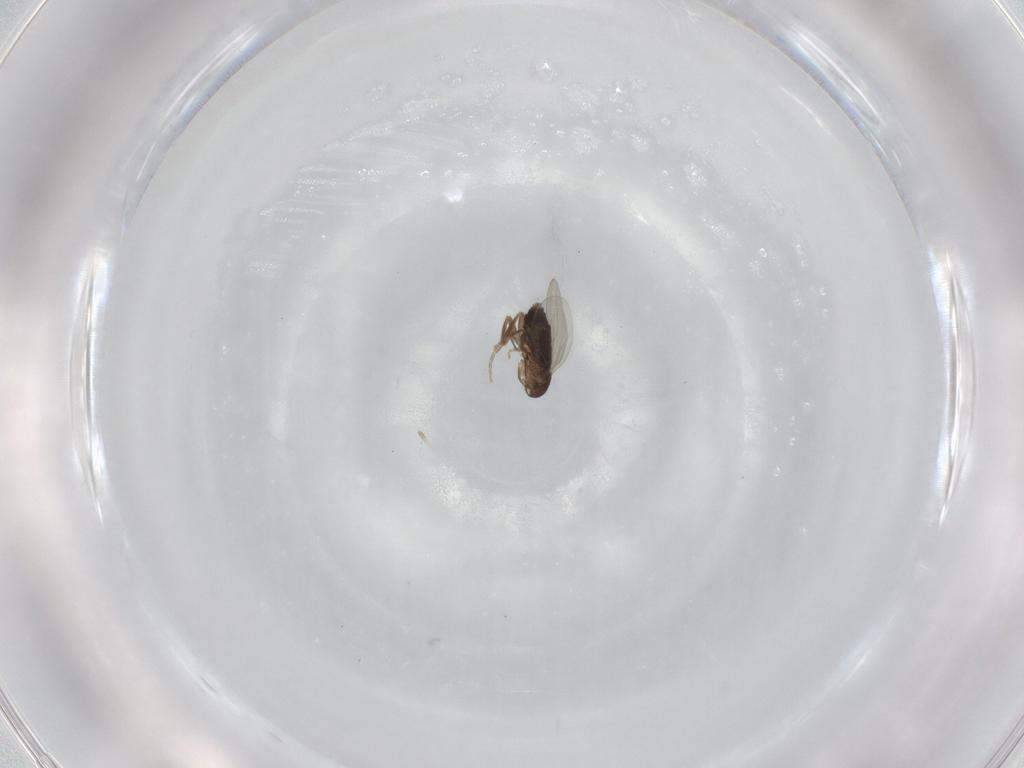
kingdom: Animalia
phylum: Arthropoda
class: Insecta
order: Diptera
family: Phoridae
